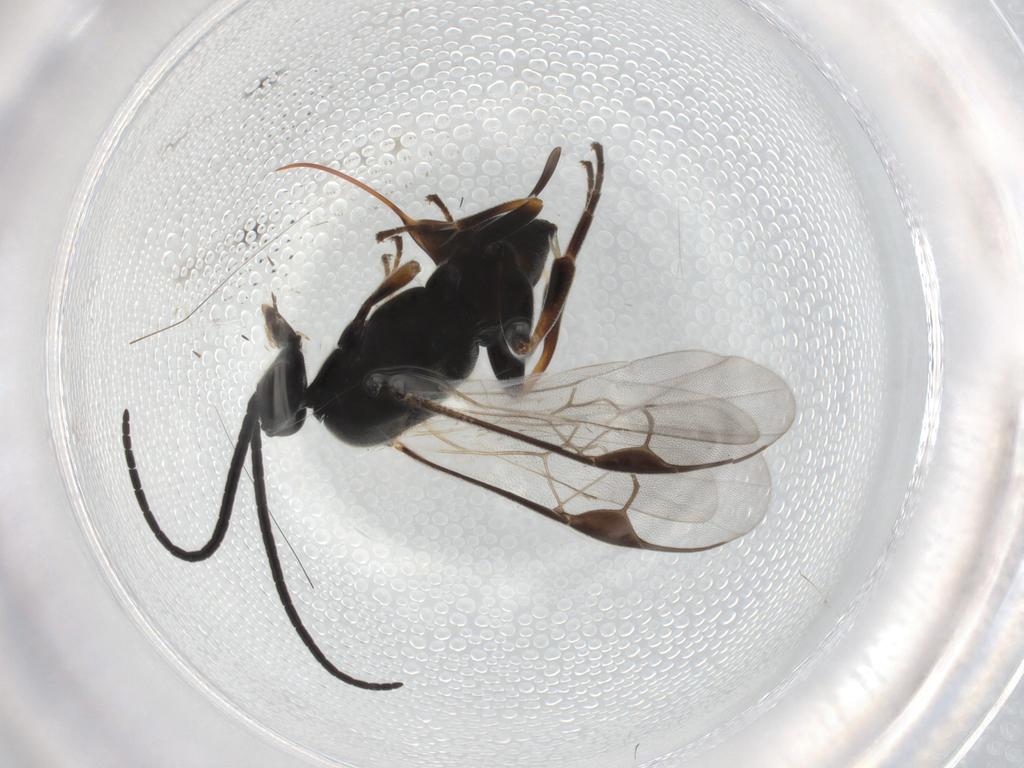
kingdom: Animalia
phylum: Arthropoda
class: Insecta
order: Hymenoptera
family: Braconidae
